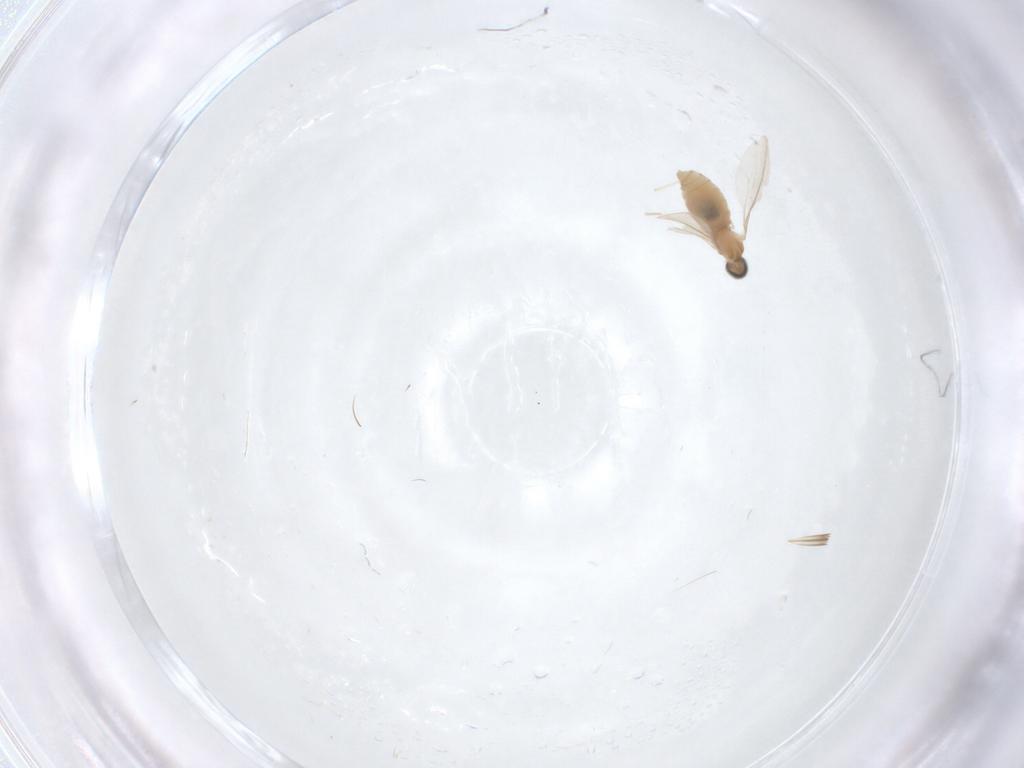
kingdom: Animalia
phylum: Arthropoda
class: Insecta
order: Diptera
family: Cecidomyiidae
